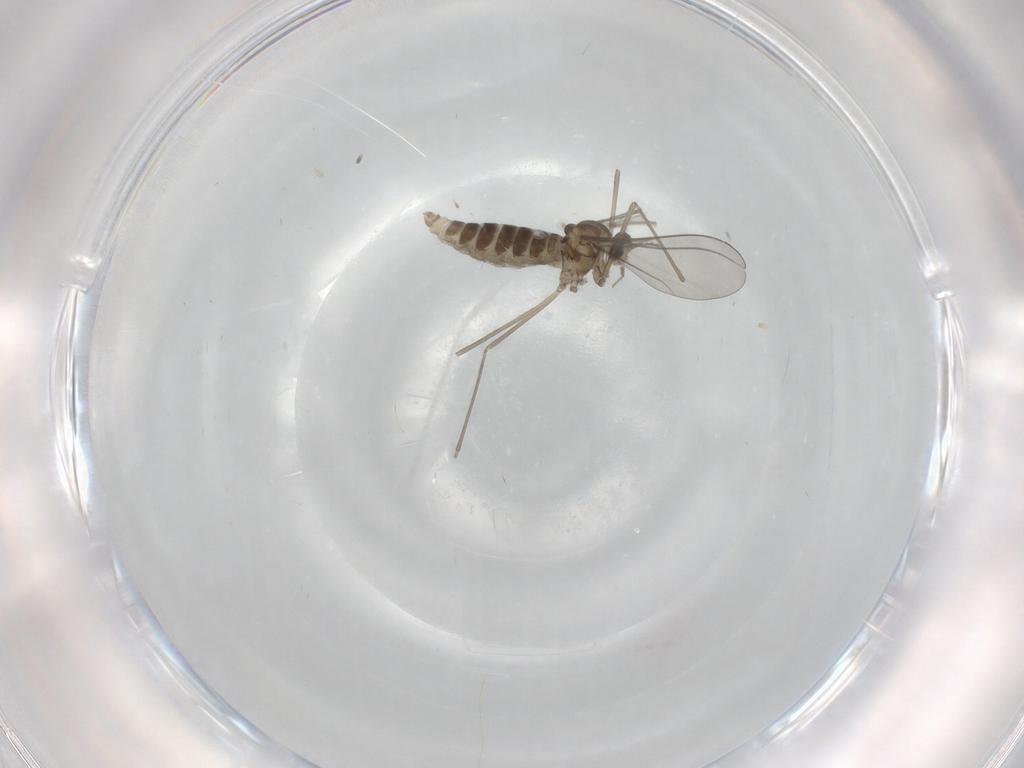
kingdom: Animalia
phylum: Arthropoda
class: Insecta
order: Diptera
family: Cecidomyiidae
